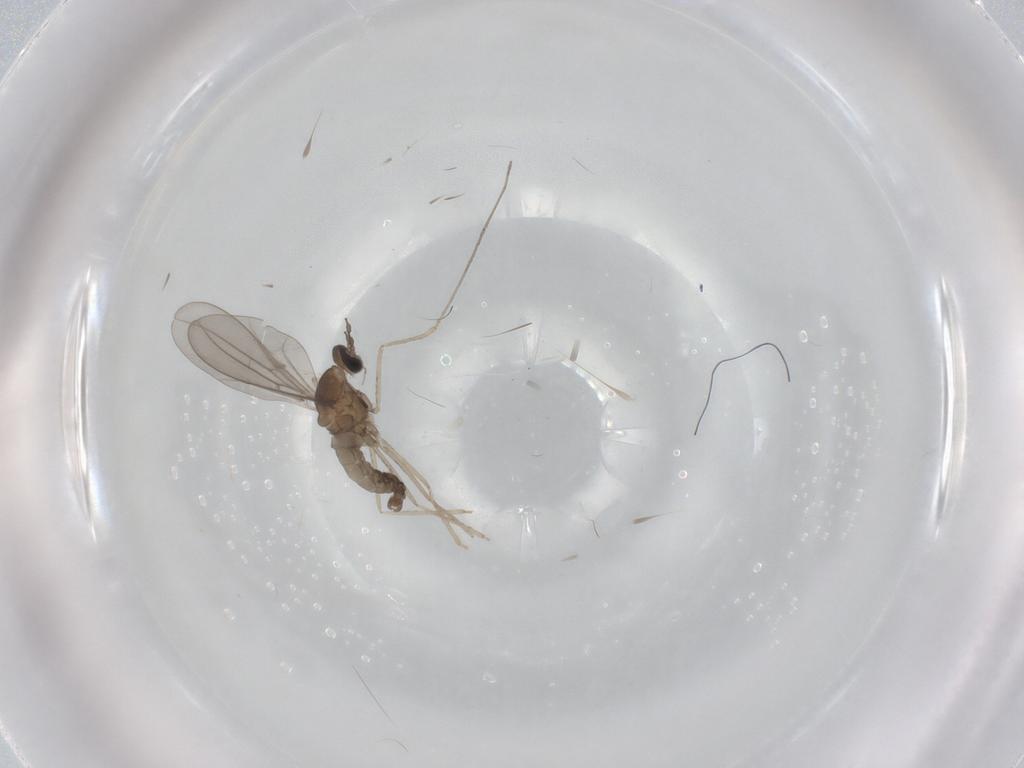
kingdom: Animalia
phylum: Arthropoda
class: Insecta
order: Diptera
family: Cecidomyiidae
